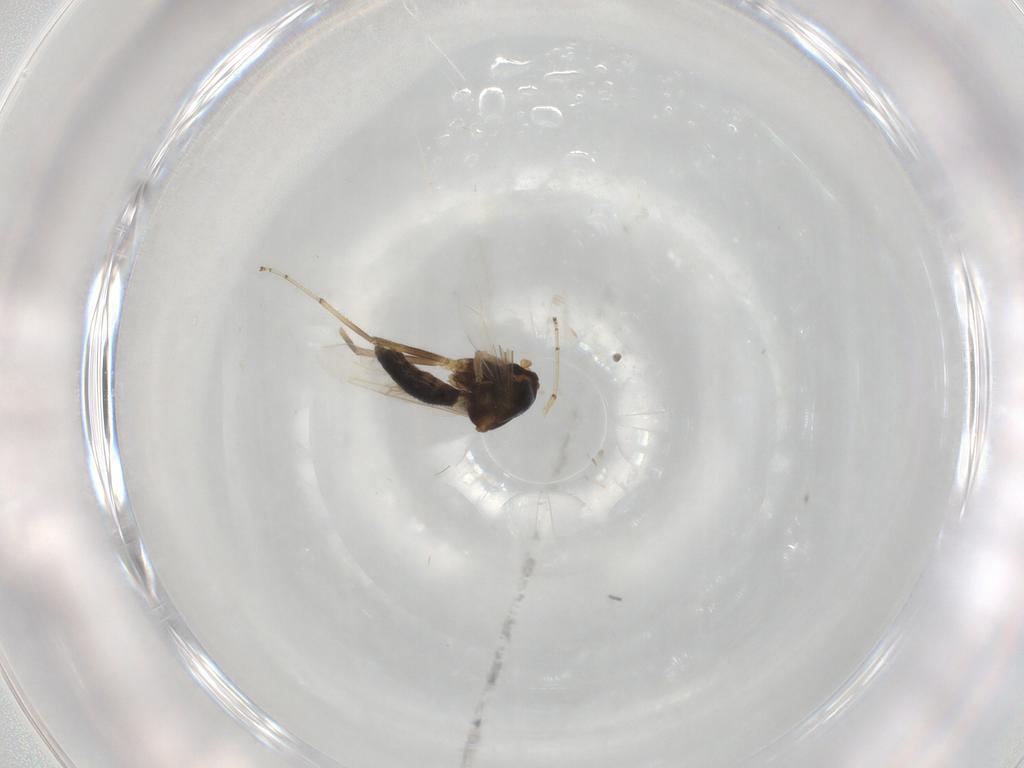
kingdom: Animalia
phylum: Arthropoda
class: Insecta
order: Diptera
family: Ceratopogonidae
